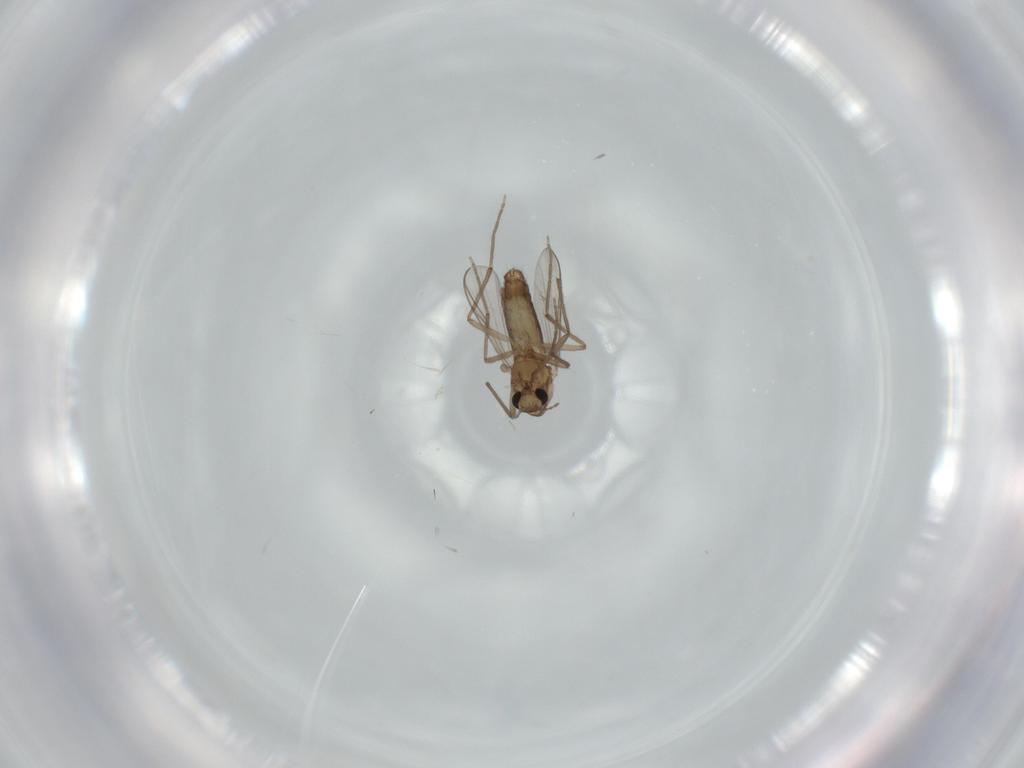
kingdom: Animalia
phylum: Arthropoda
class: Insecta
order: Diptera
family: Chironomidae
